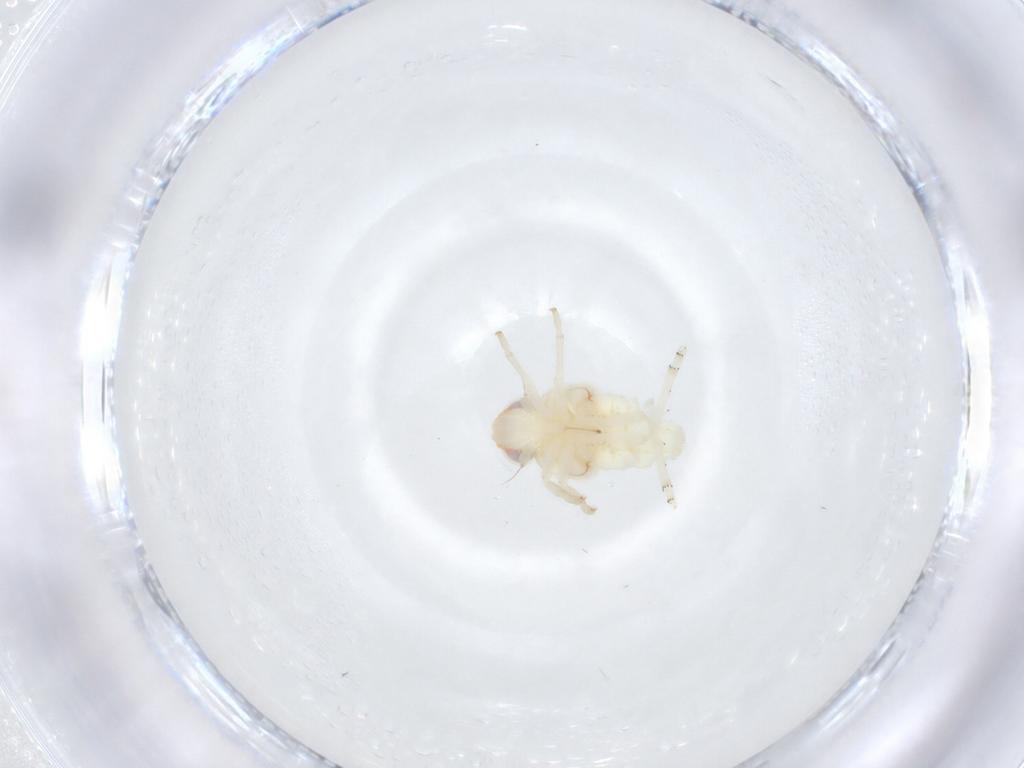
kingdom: Animalia
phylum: Arthropoda
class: Insecta
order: Hemiptera
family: Nogodinidae
